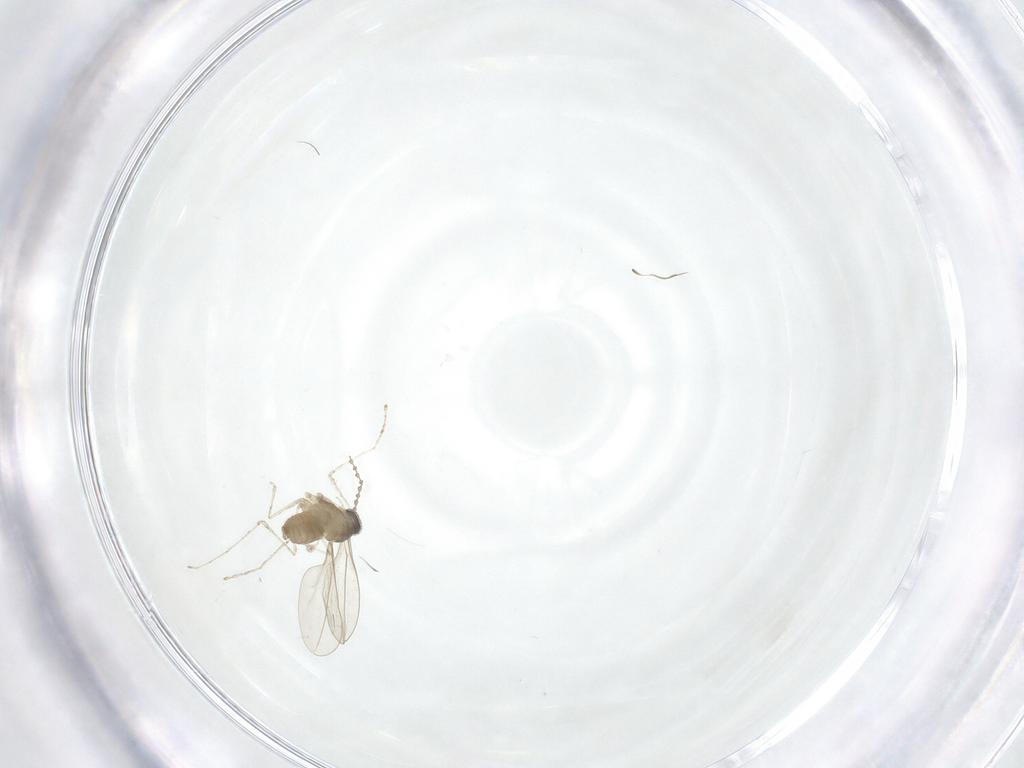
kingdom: Animalia
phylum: Arthropoda
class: Insecta
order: Diptera
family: Cecidomyiidae
